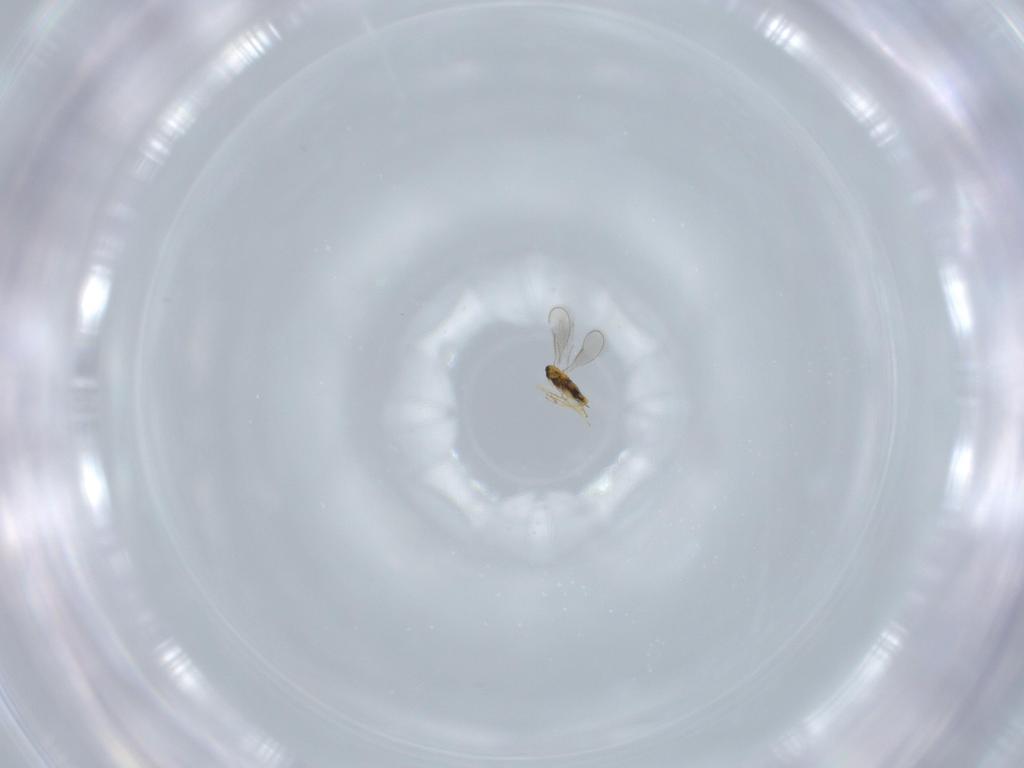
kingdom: Animalia
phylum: Arthropoda
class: Insecta
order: Hymenoptera
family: Aphelinidae
